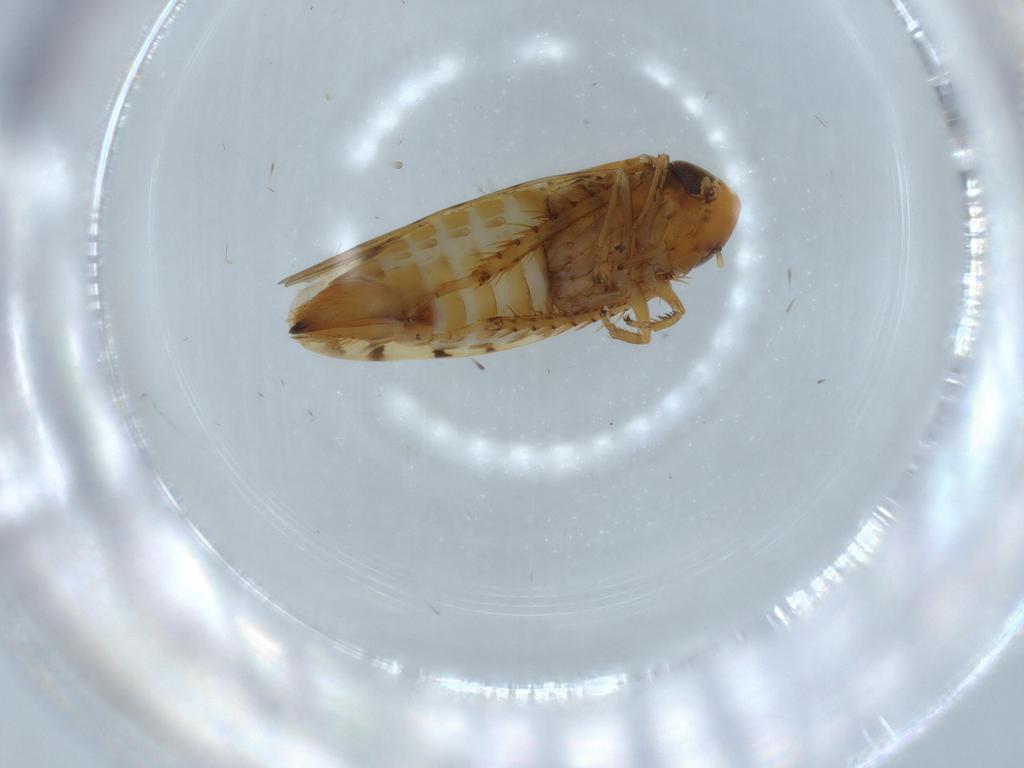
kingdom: Animalia
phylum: Arthropoda
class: Insecta
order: Hemiptera
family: Cicadellidae
